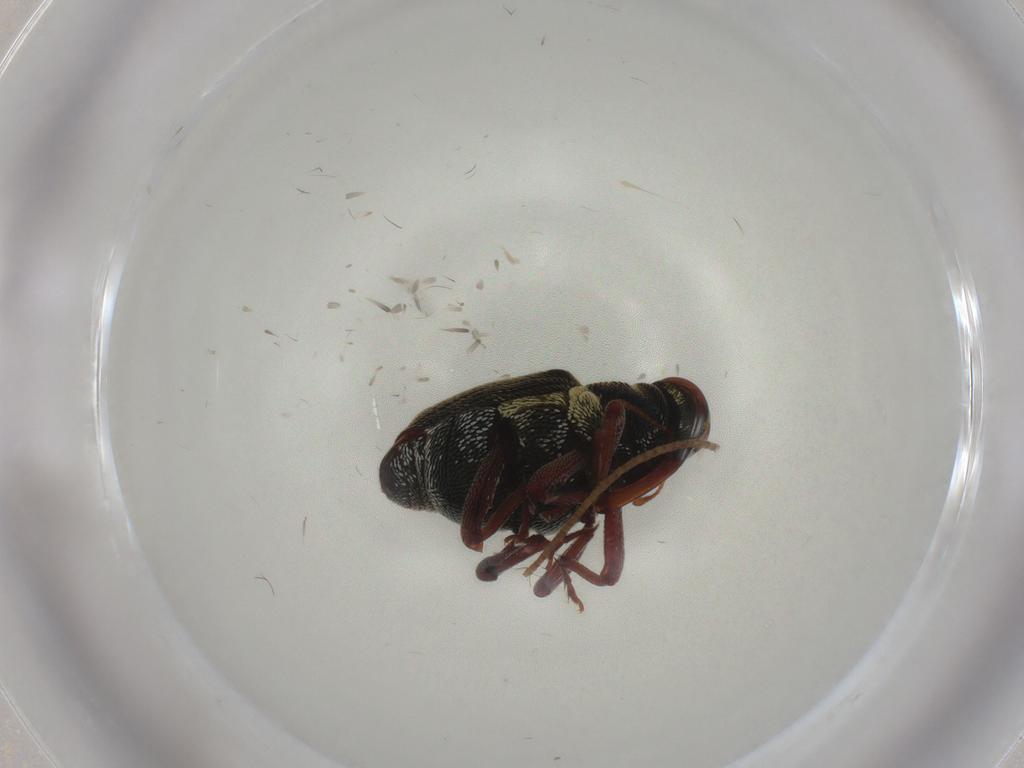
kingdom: Animalia
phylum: Arthropoda
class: Insecta
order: Coleoptera
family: Curculionidae
